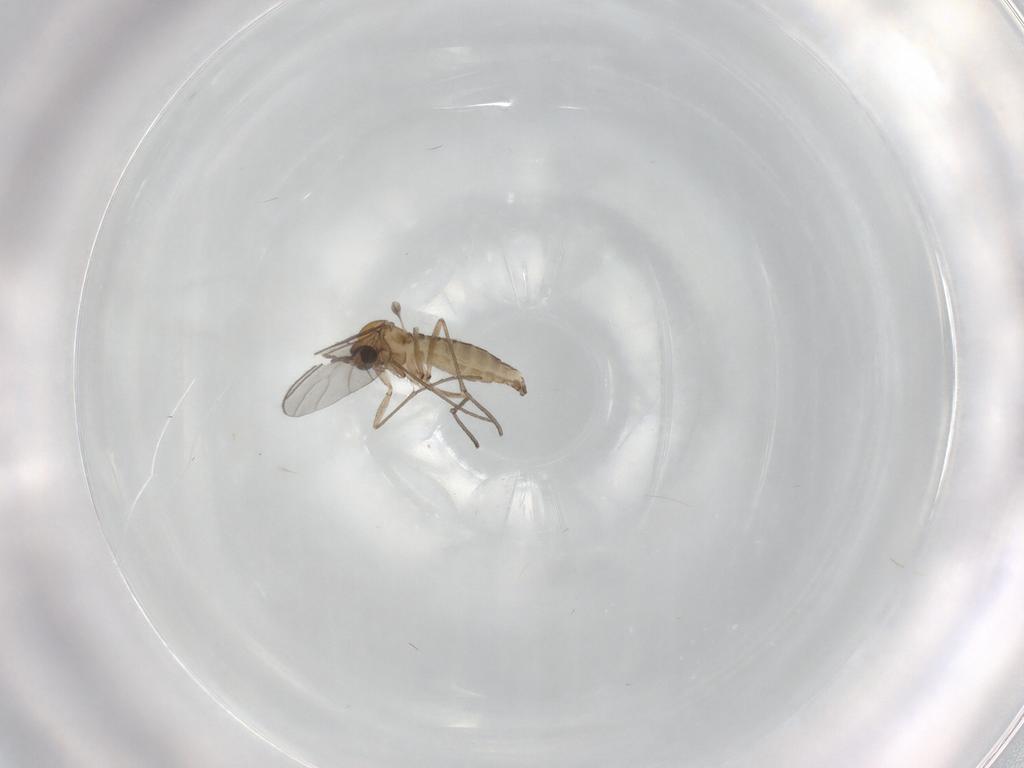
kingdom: Animalia
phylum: Arthropoda
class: Insecta
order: Diptera
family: Sciaridae
